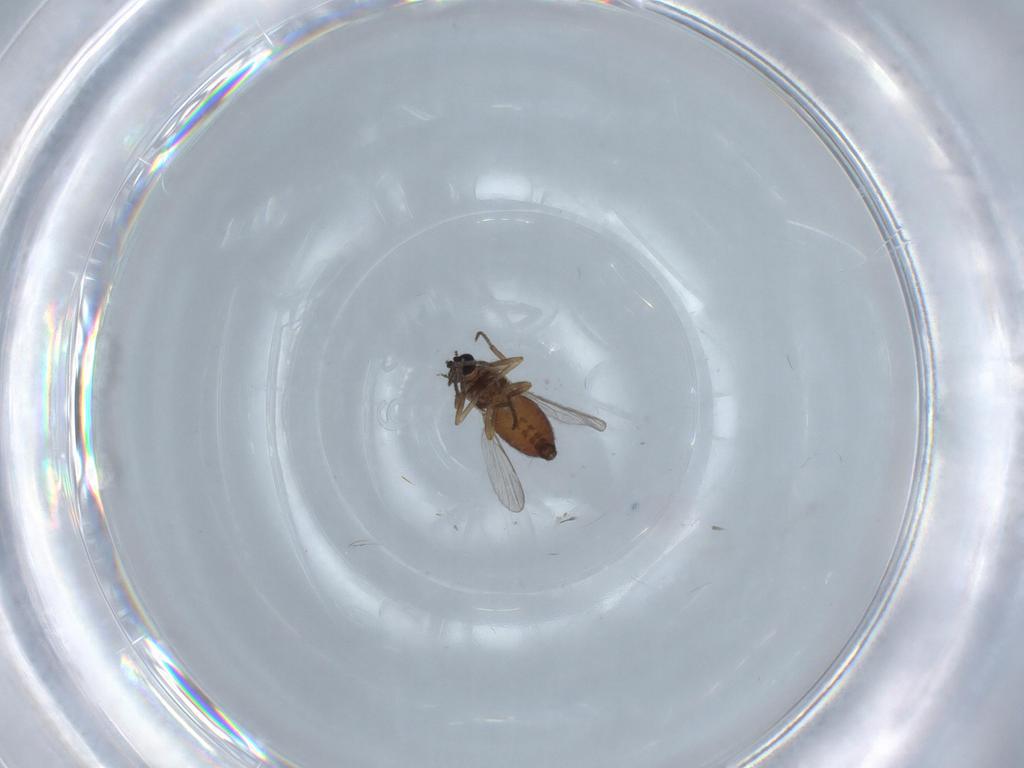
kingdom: Animalia
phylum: Arthropoda
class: Insecta
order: Diptera
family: Ceratopogonidae
